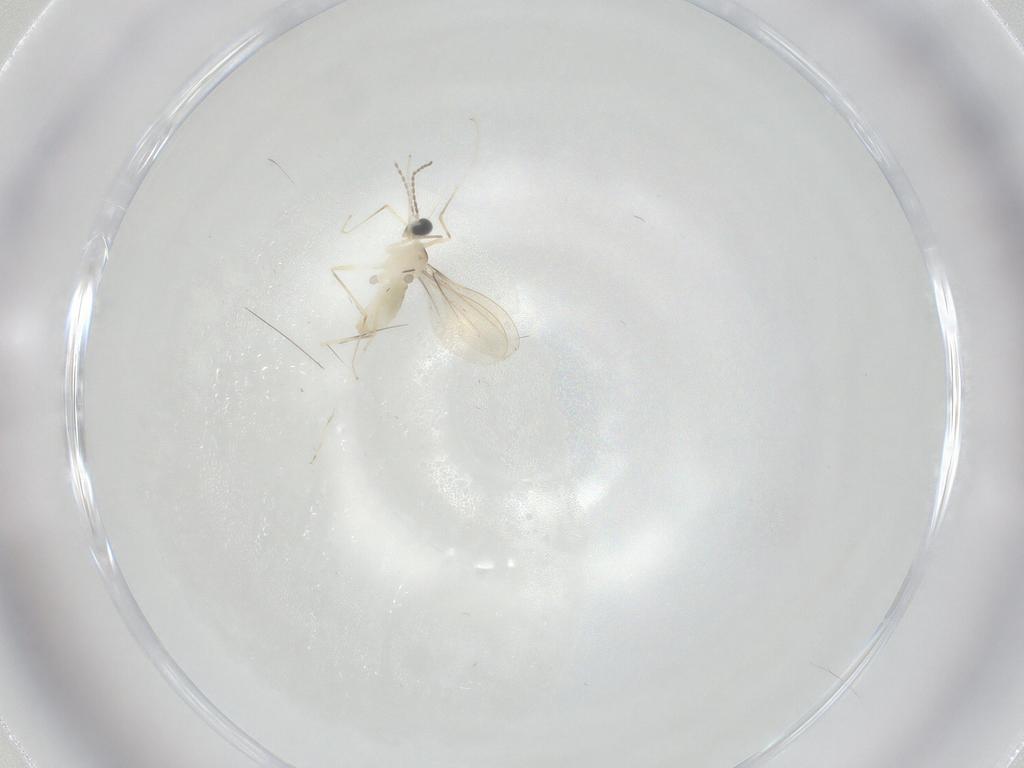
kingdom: Animalia
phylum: Arthropoda
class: Insecta
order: Diptera
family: Cecidomyiidae
